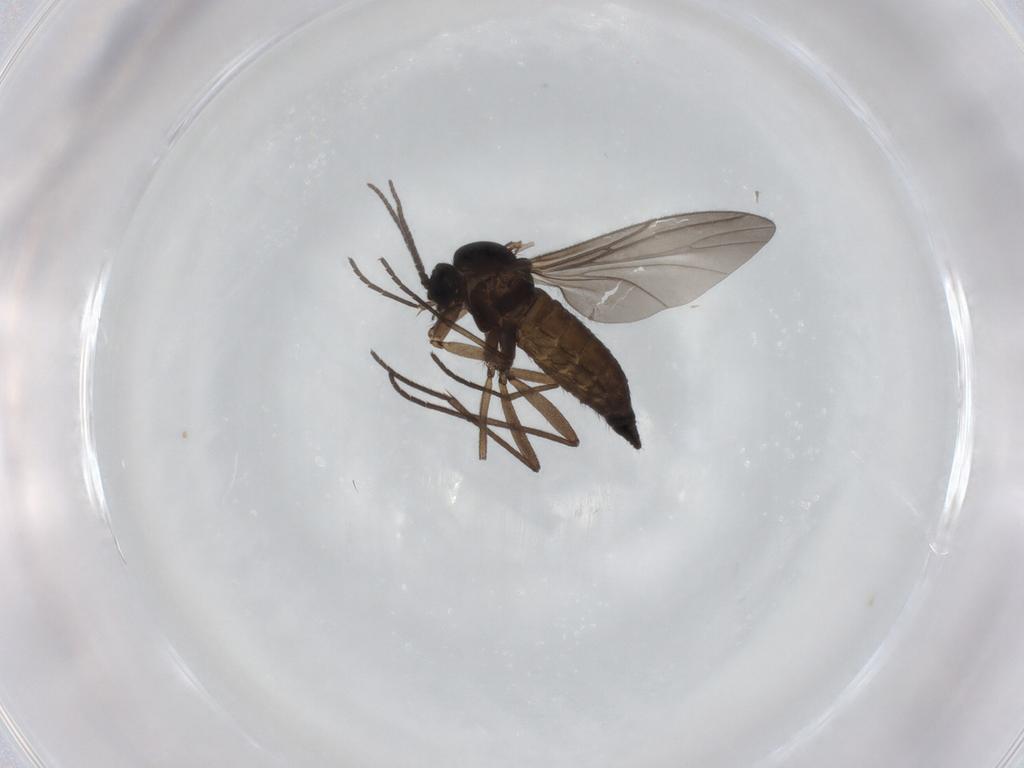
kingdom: Animalia
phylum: Arthropoda
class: Insecta
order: Diptera
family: Sciaridae
